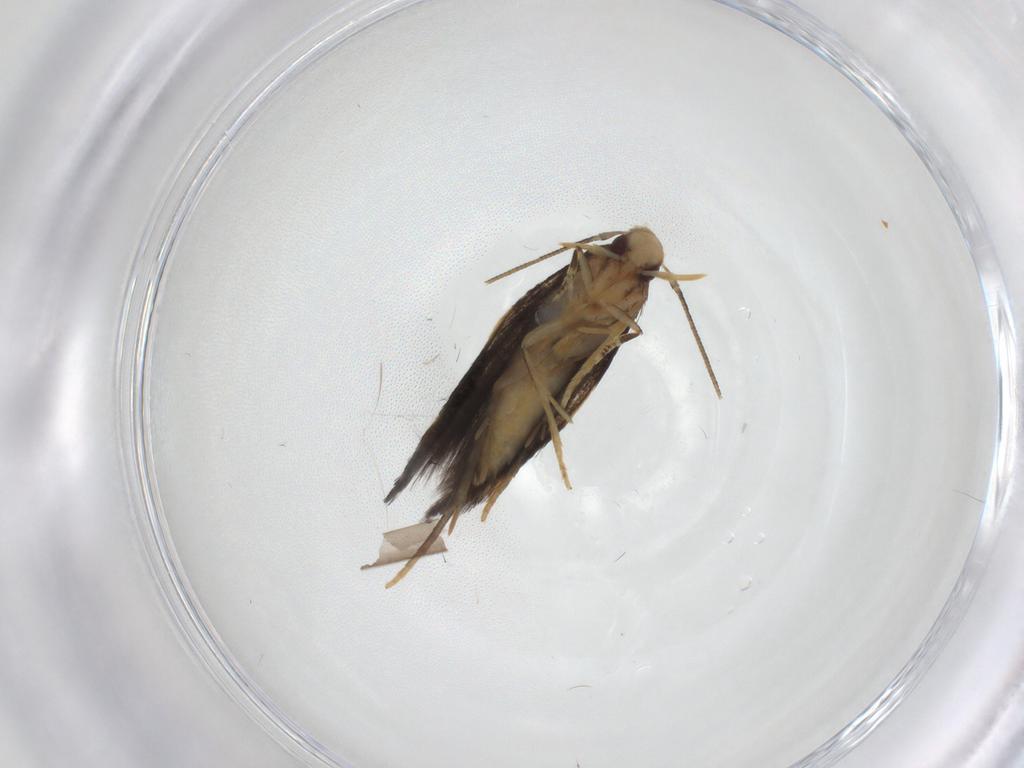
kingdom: Animalia
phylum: Arthropoda
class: Insecta
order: Lepidoptera
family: Gelechiidae
